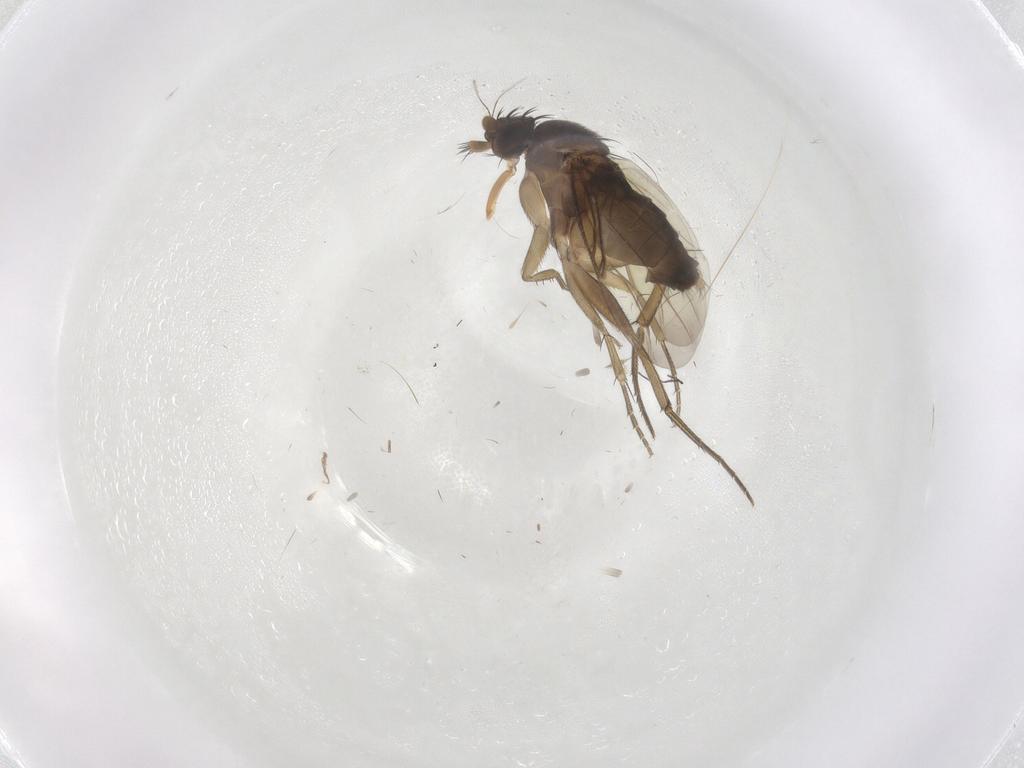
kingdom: Animalia
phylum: Arthropoda
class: Insecta
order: Diptera
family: Phoridae
